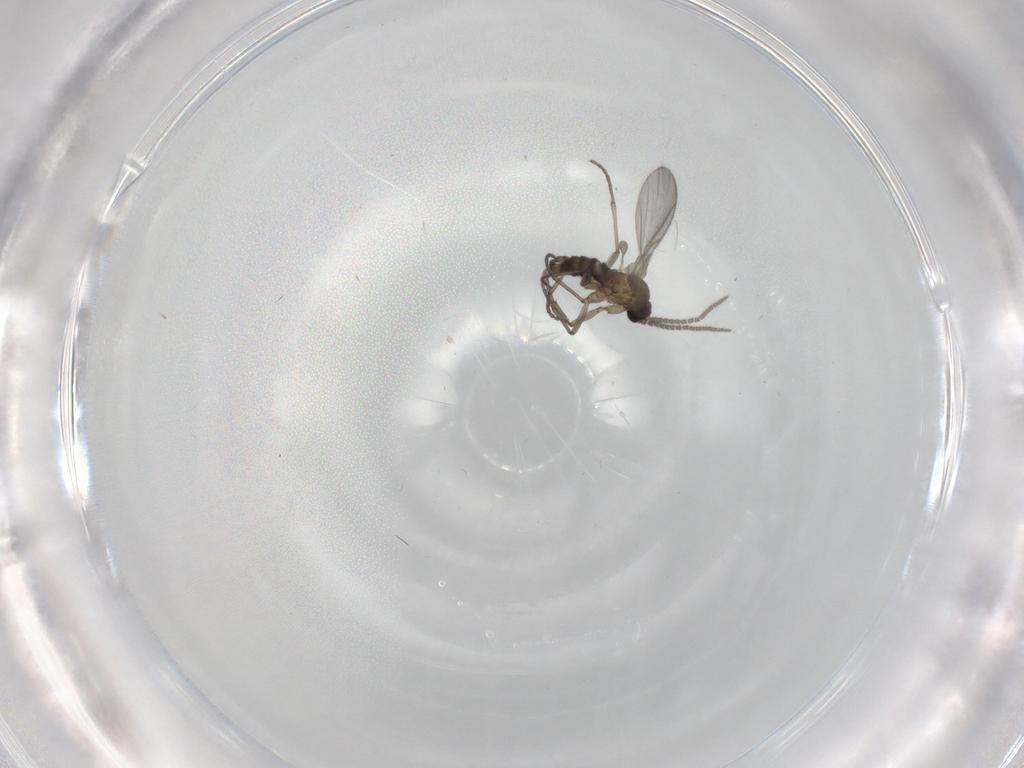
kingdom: Animalia
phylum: Arthropoda
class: Insecta
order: Diptera
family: Sciaridae
